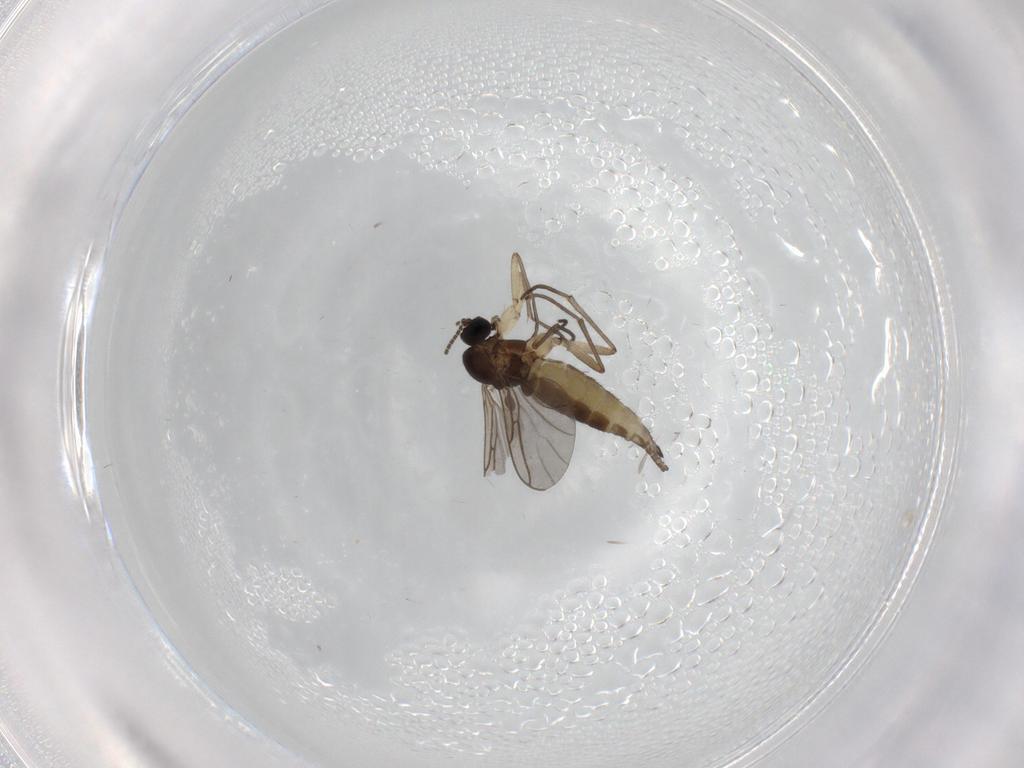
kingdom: Animalia
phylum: Arthropoda
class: Insecta
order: Diptera
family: Sciaridae
